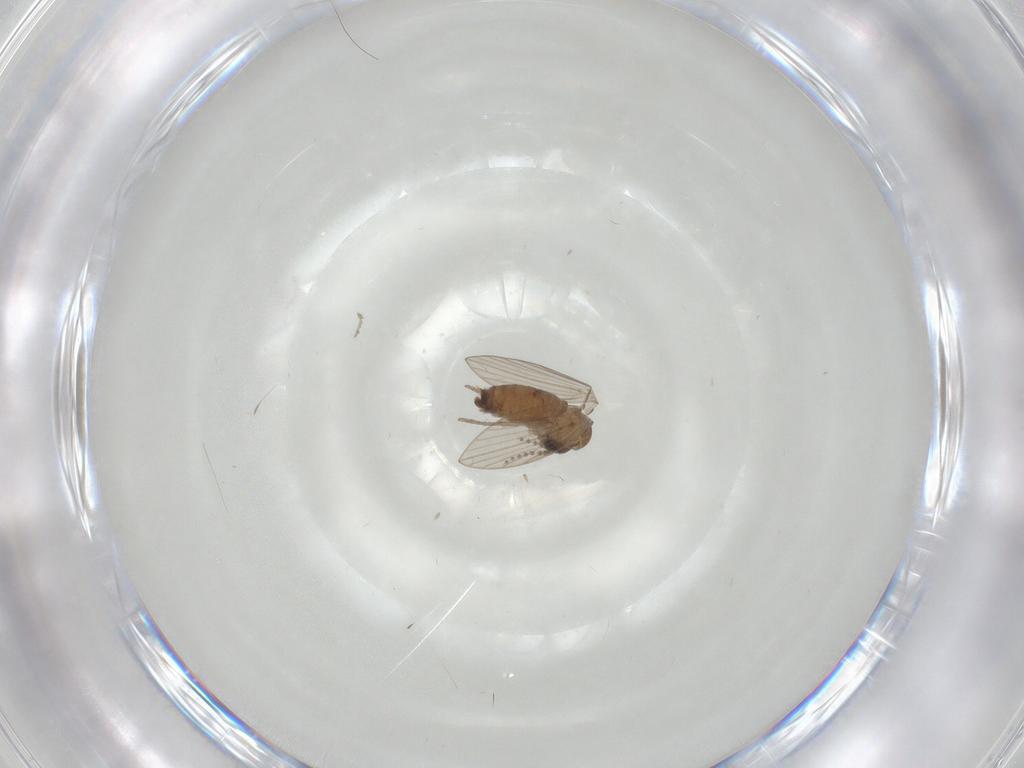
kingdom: Animalia
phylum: Arthropoda
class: Insecta
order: Diptera
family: Psychodidae
